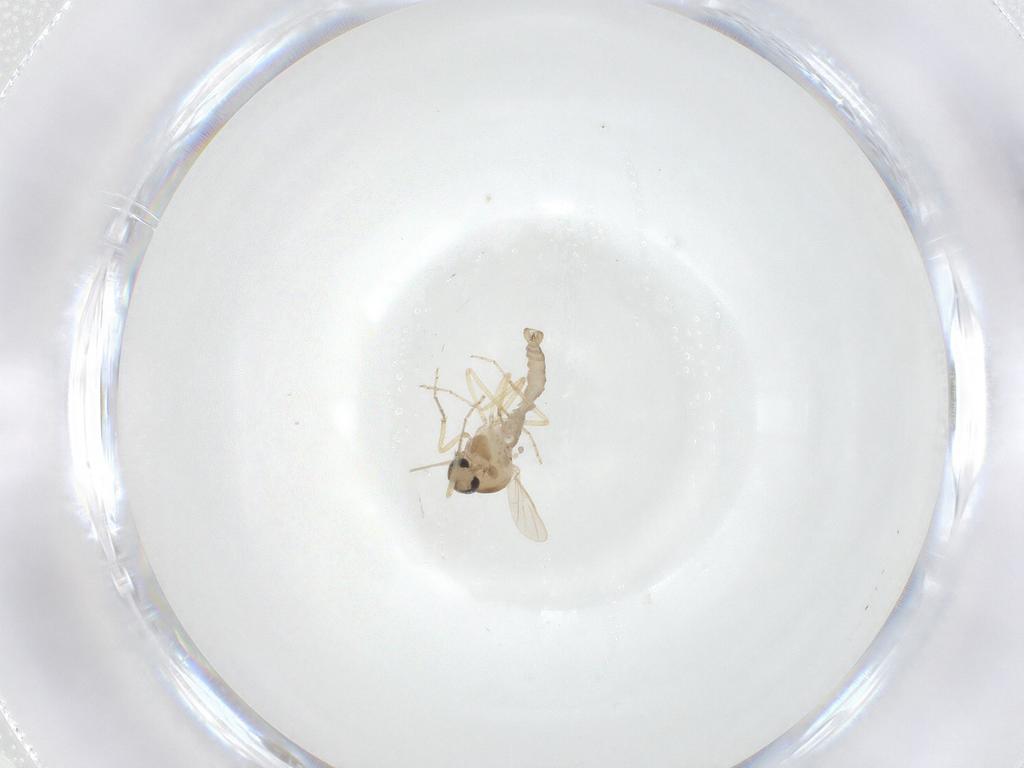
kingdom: Animalia
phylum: Arthropoda
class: Insecta
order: Diptera
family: Ceratopogonidae
